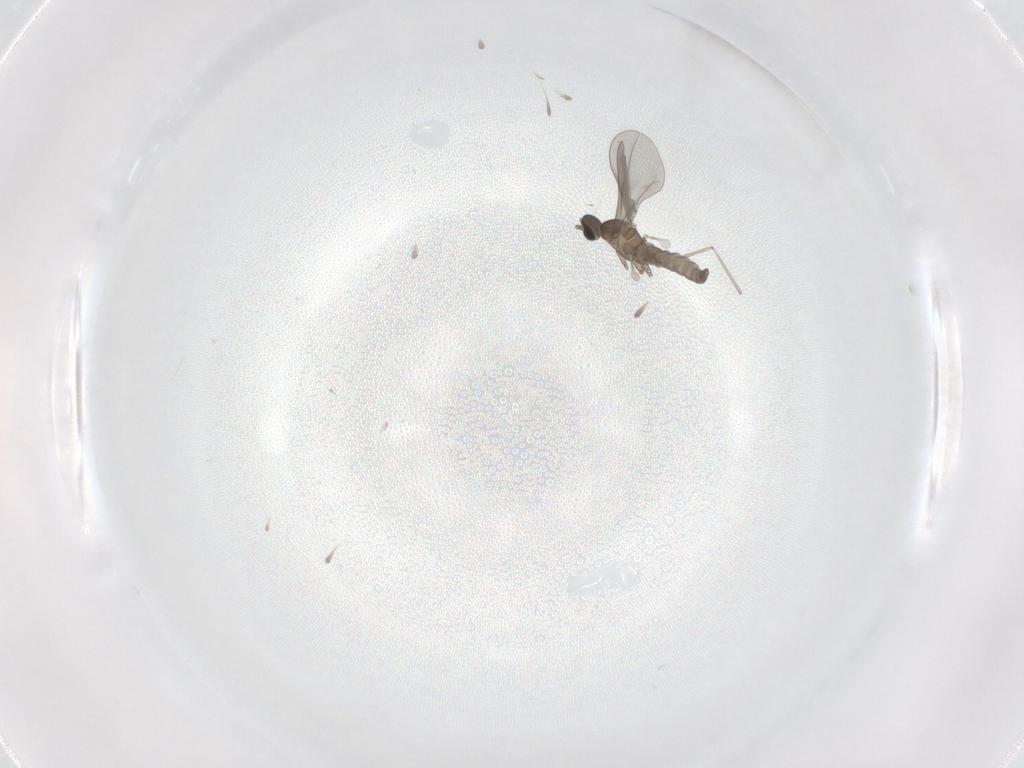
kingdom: Animalia
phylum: Arthropoda
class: Insecta
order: Diptera
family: Cecidomyiidae
